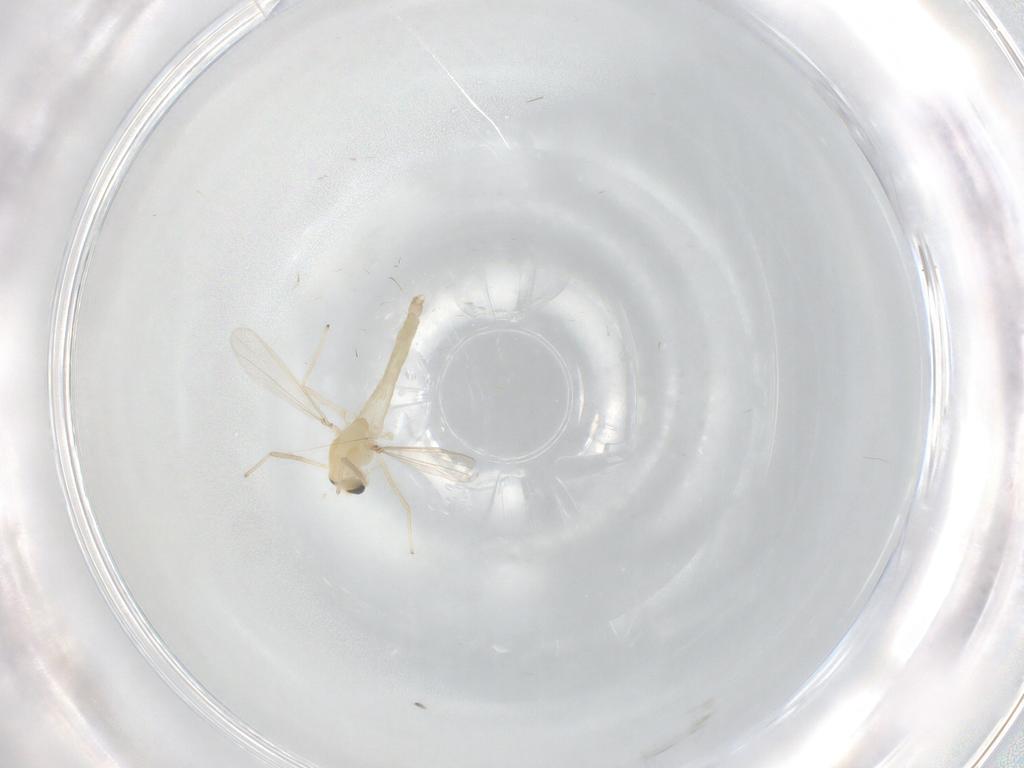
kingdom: Animalia
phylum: Arthropoda
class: Insecta
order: Diptera
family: Chironomidae
